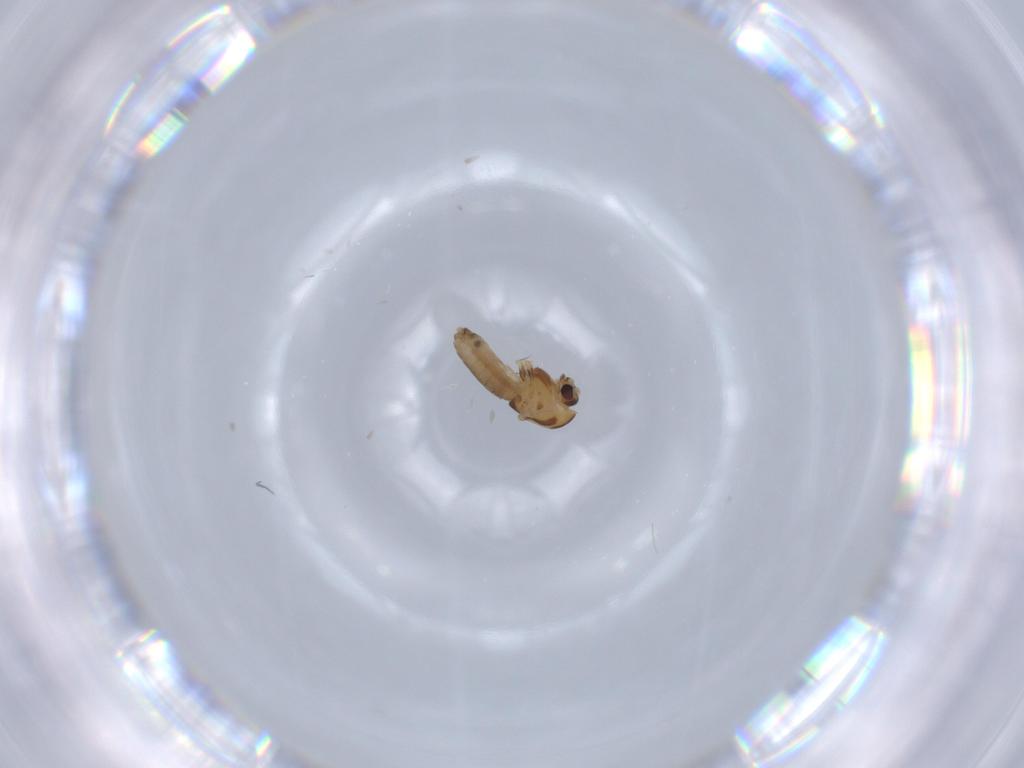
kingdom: Animalia
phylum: Arthropoda
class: Insecta
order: Diptera
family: Chironomidae
